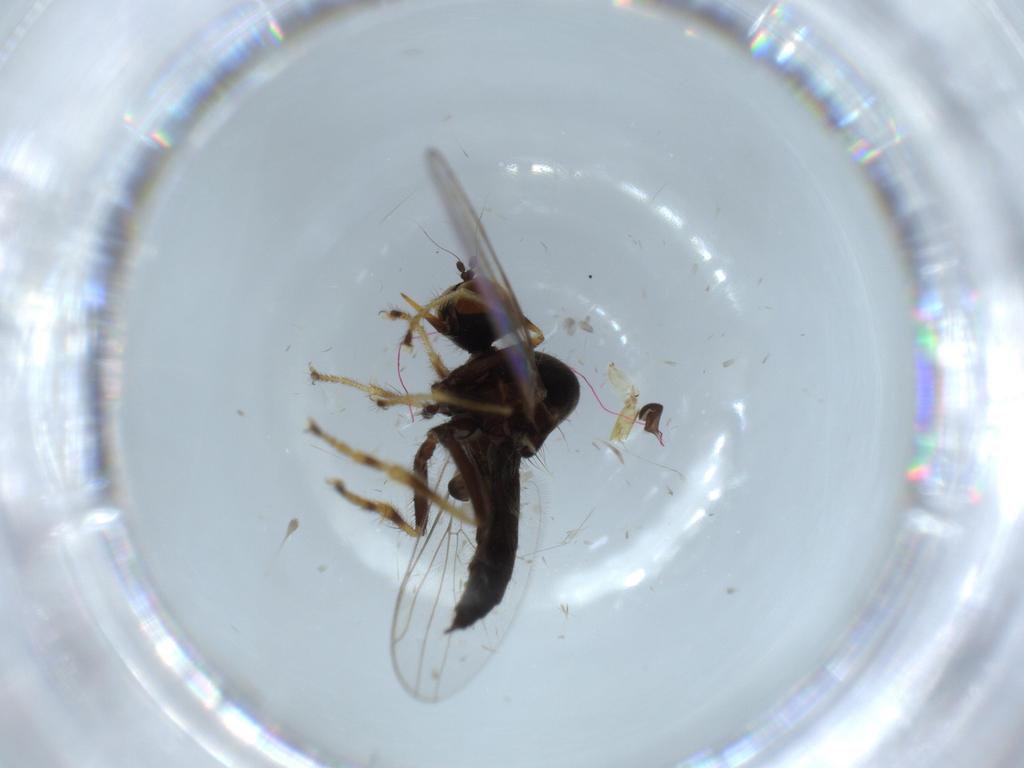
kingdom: Animalia
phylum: Arthropoda
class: Insecta
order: Diptera
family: Hybotidae
